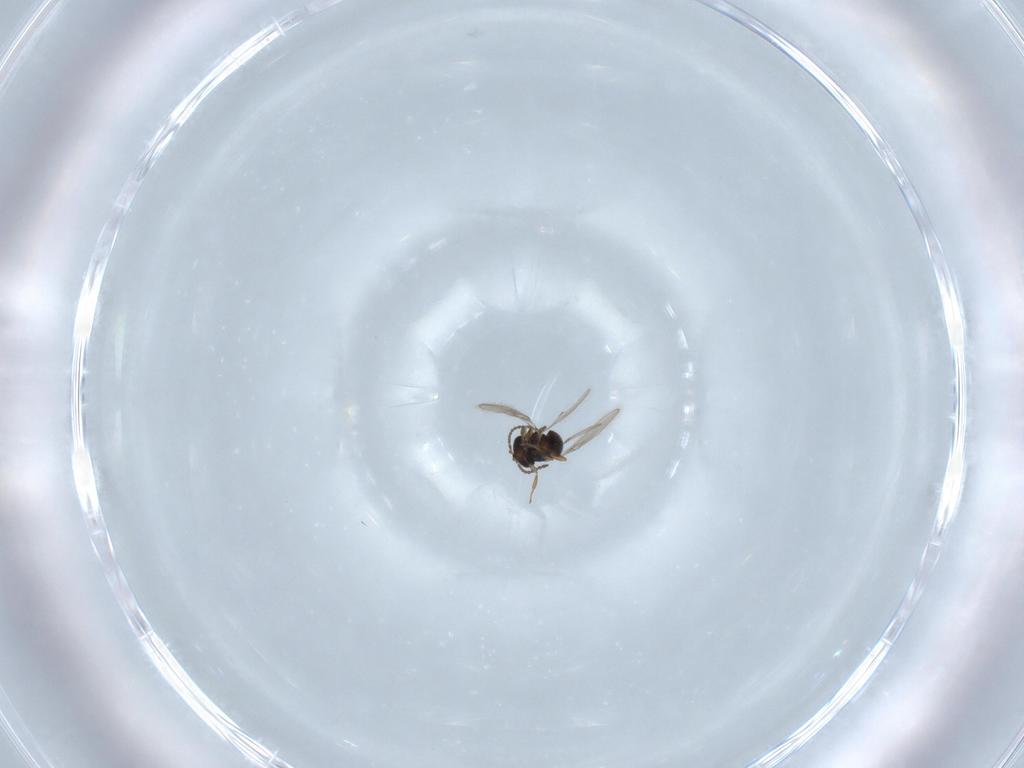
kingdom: Animalia
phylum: Arthropoda
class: Insecta
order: Hymenoptera
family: Scelionidae
